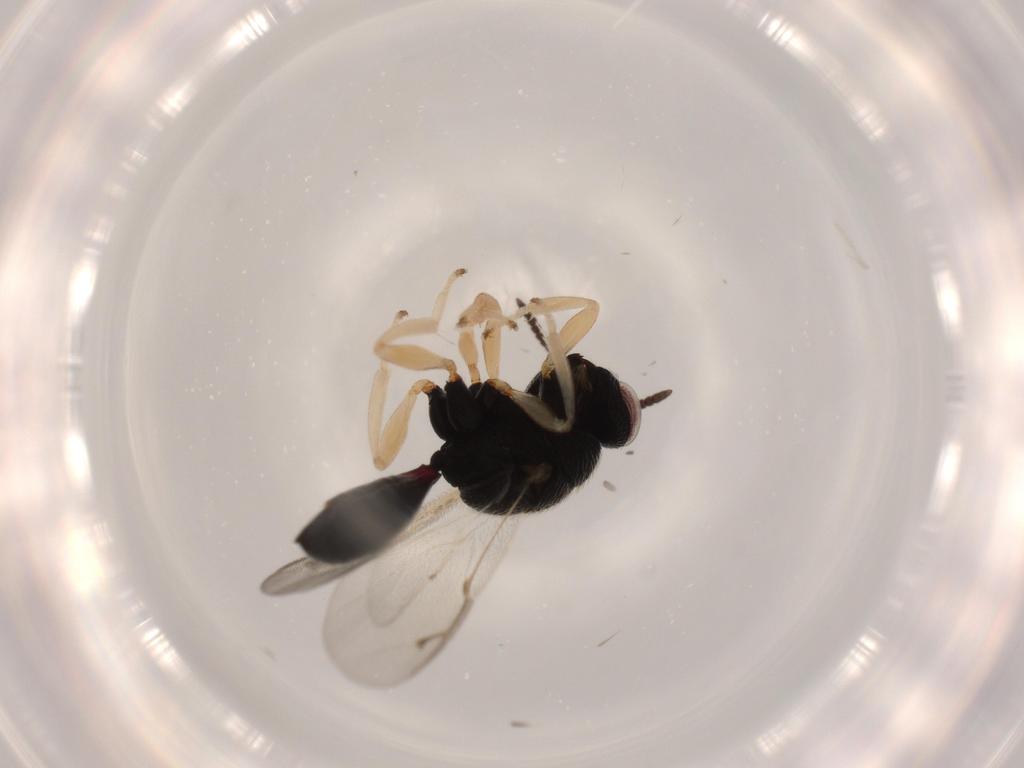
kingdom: Animalia
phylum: Arthropoda
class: Insecta
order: Hymenoptera
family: Eurytomidae
